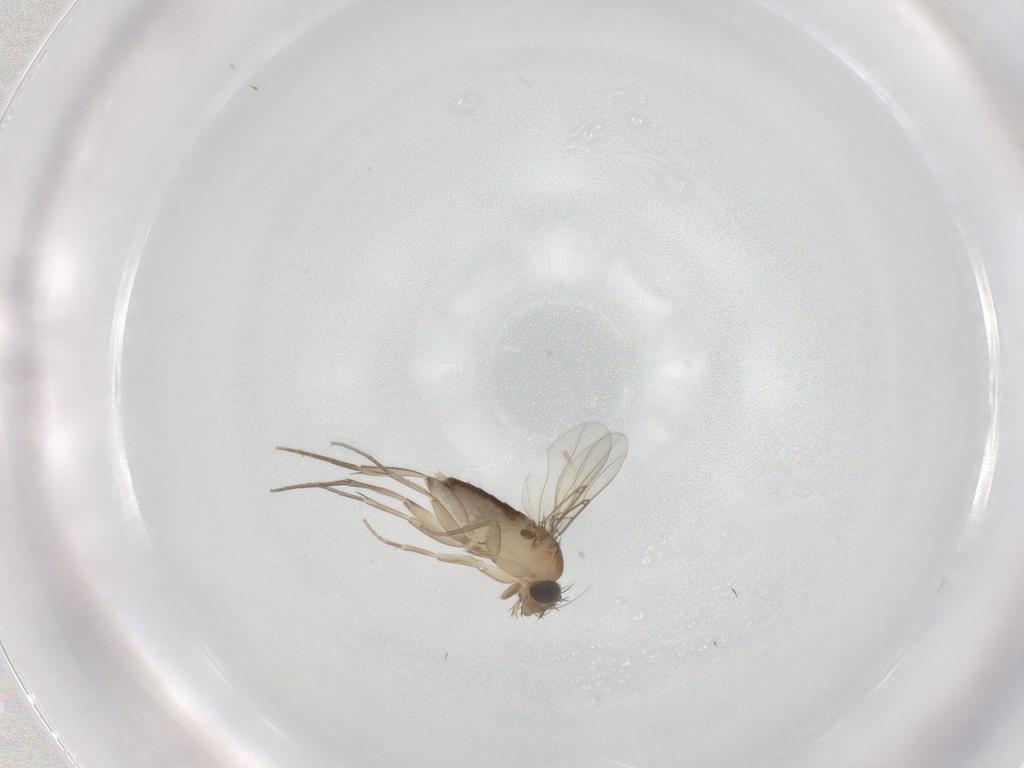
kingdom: Animalia
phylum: Arthropoda
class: Insecta
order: Diptera
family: Phoridae
